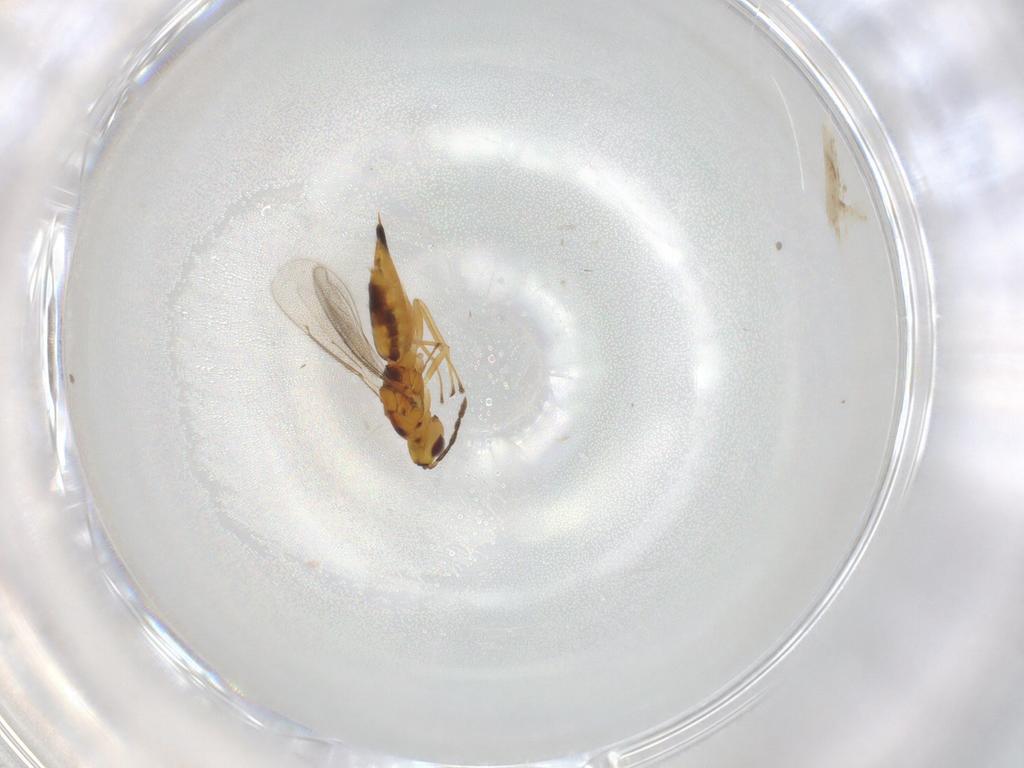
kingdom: Animalia
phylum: Arthropoda
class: Insecta
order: Hymenoptera
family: Eulophidae
